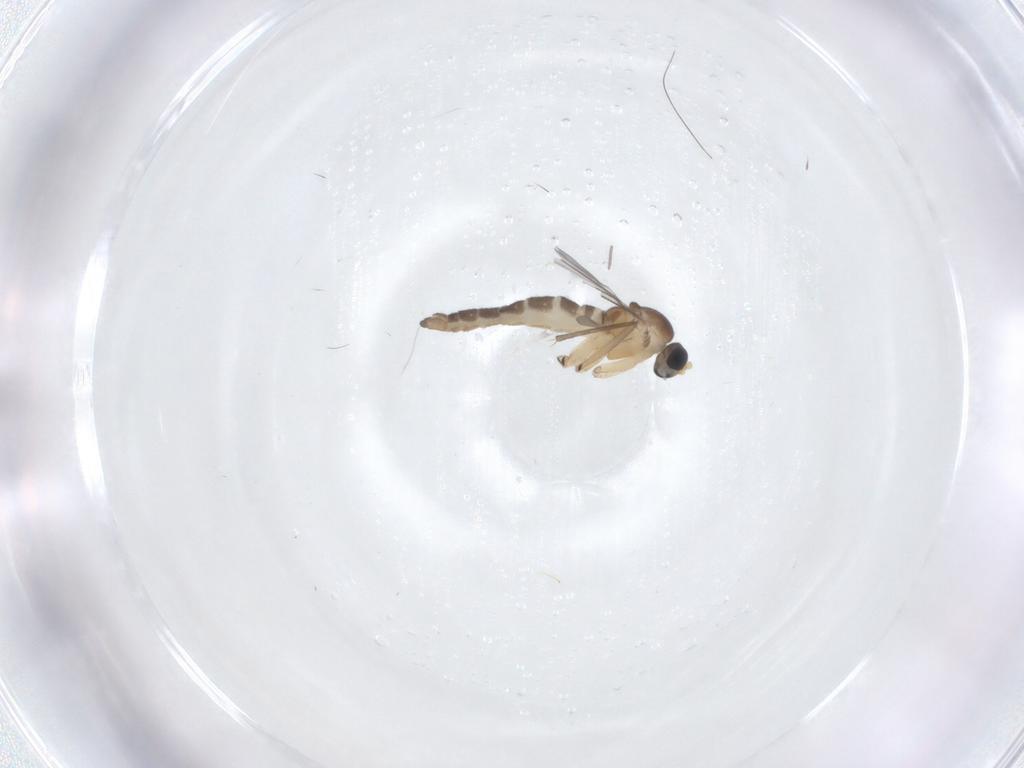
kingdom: Animalia
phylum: Arthropoda
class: Insecta
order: Diptera
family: Sciaridae
